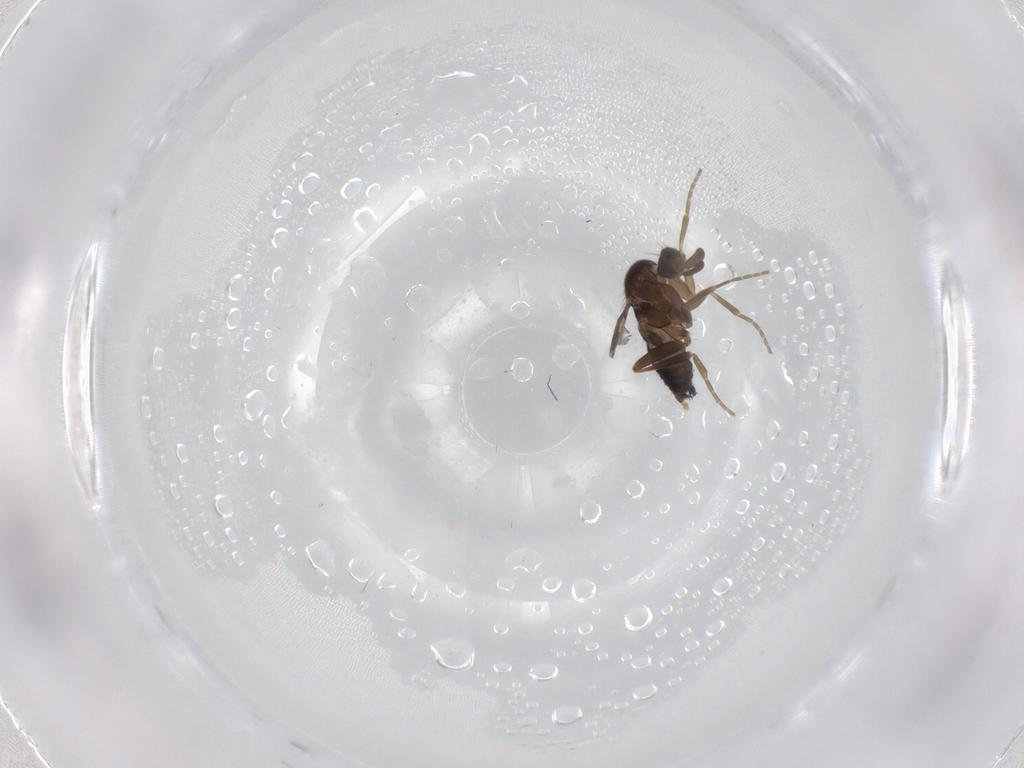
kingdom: Animalia
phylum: Arthropoda
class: Insecta
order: Diptera
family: Phoridae
